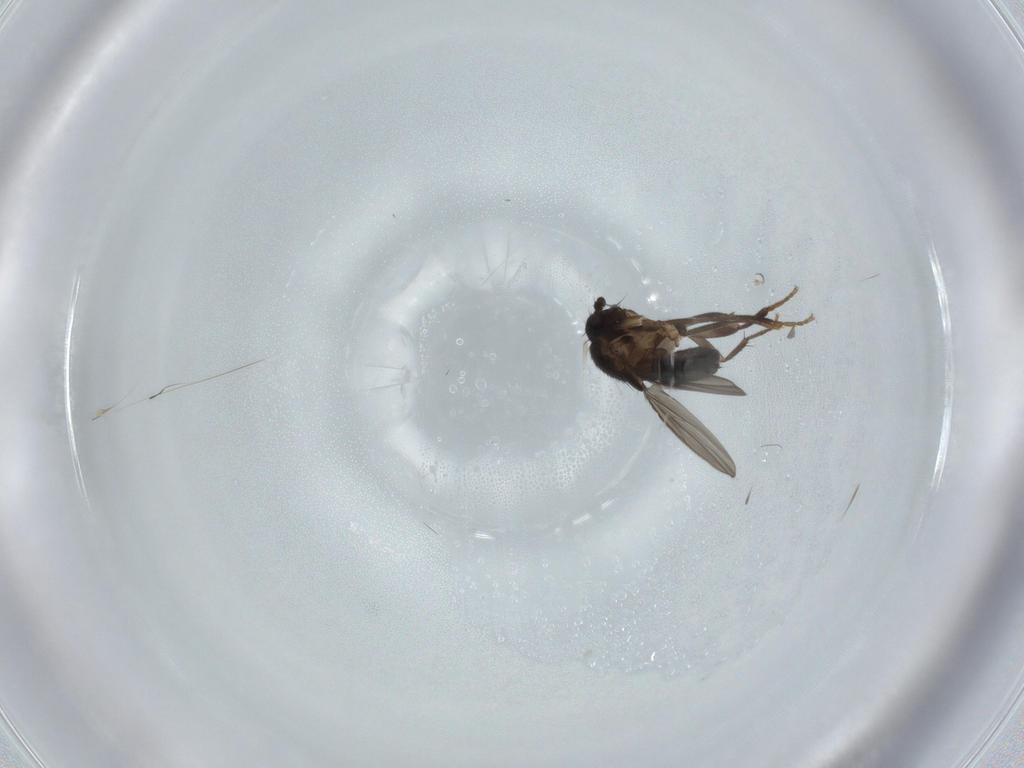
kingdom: Animalia
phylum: Arthropoda
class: Insecta
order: Diptera
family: Sphaeroceridae
